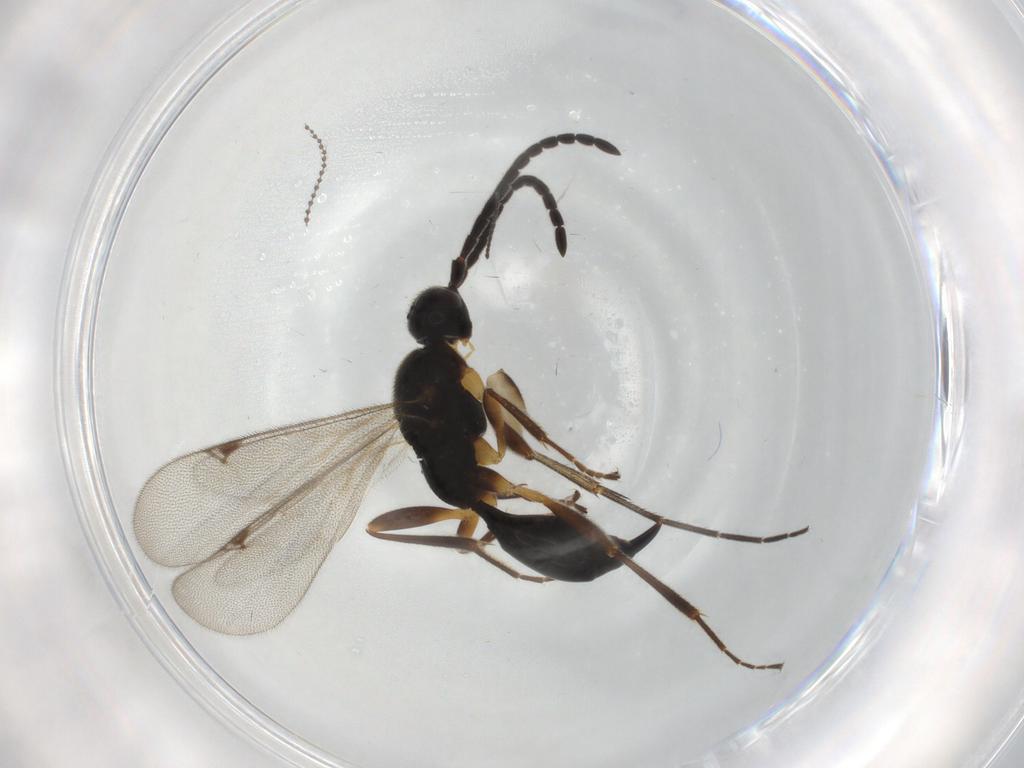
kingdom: Animalia
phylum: Arthropoda
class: Insecta
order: Hymenoptera
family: Proctotrupidae
